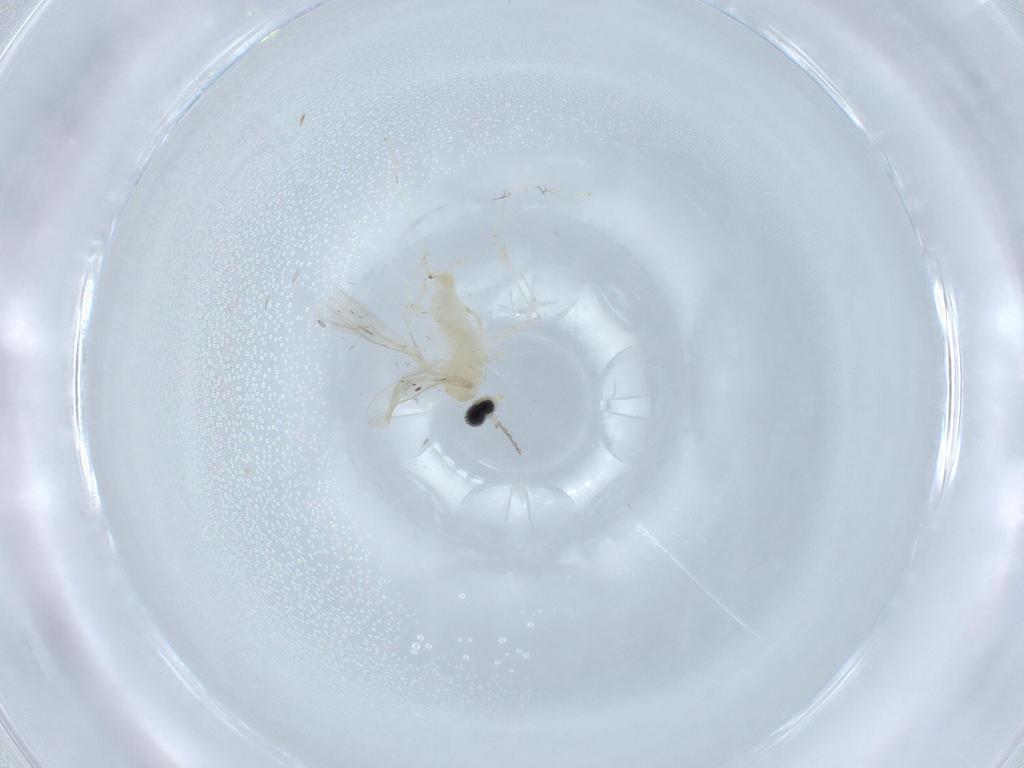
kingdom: Animalia
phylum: Arthropoda
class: Insecta
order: Diptera
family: Cecidomyiidae
